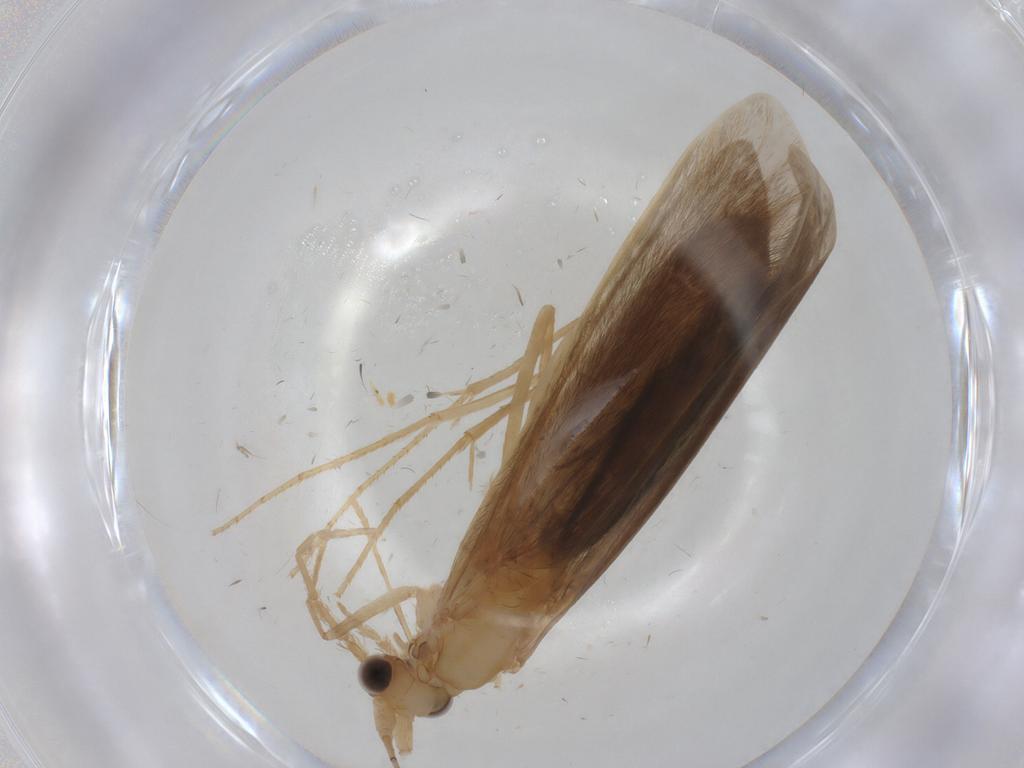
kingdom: Animalia
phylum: Arthropoda
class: Insecta
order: Trichoptera
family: Leptoceridae
